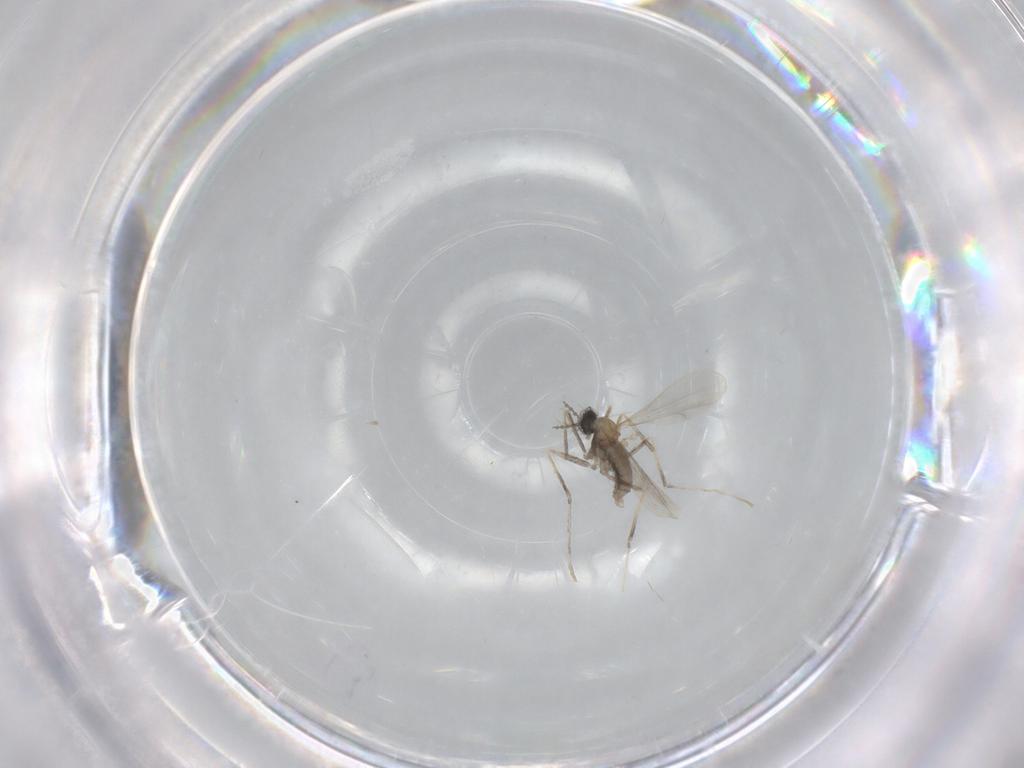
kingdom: Animalia
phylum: Arthropoda
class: Insecta
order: Diptera
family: Cecidomyiidae
